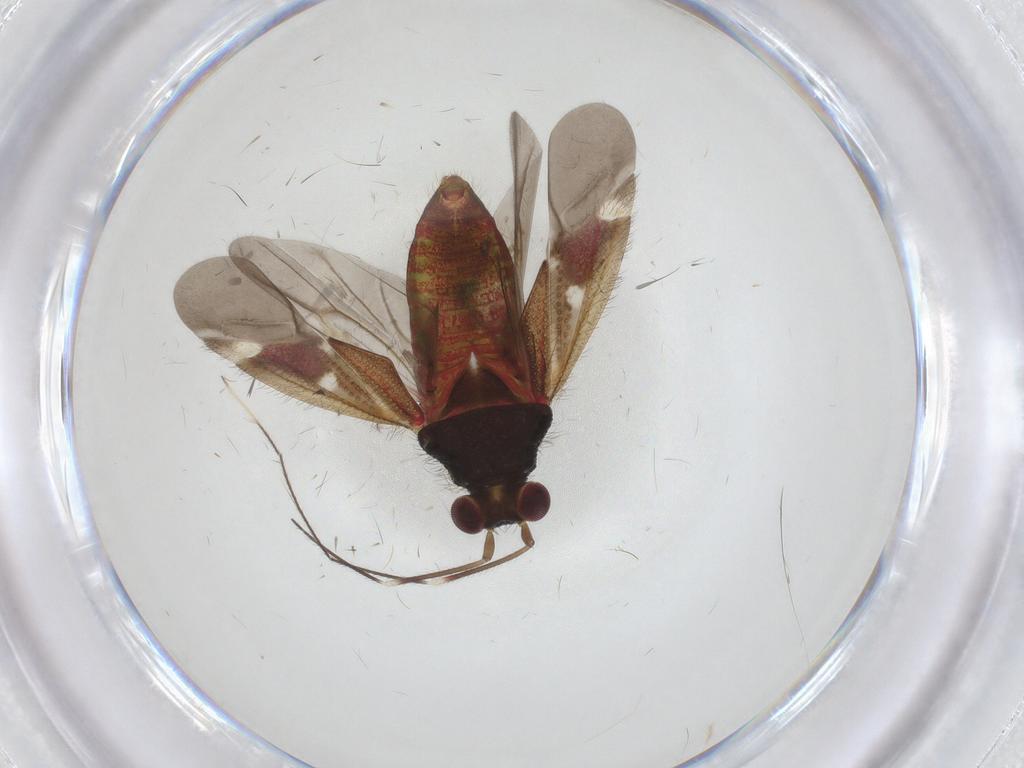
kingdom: Animalia
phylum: Arthropoda
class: Insecta
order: Hemiptera
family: Miridae
